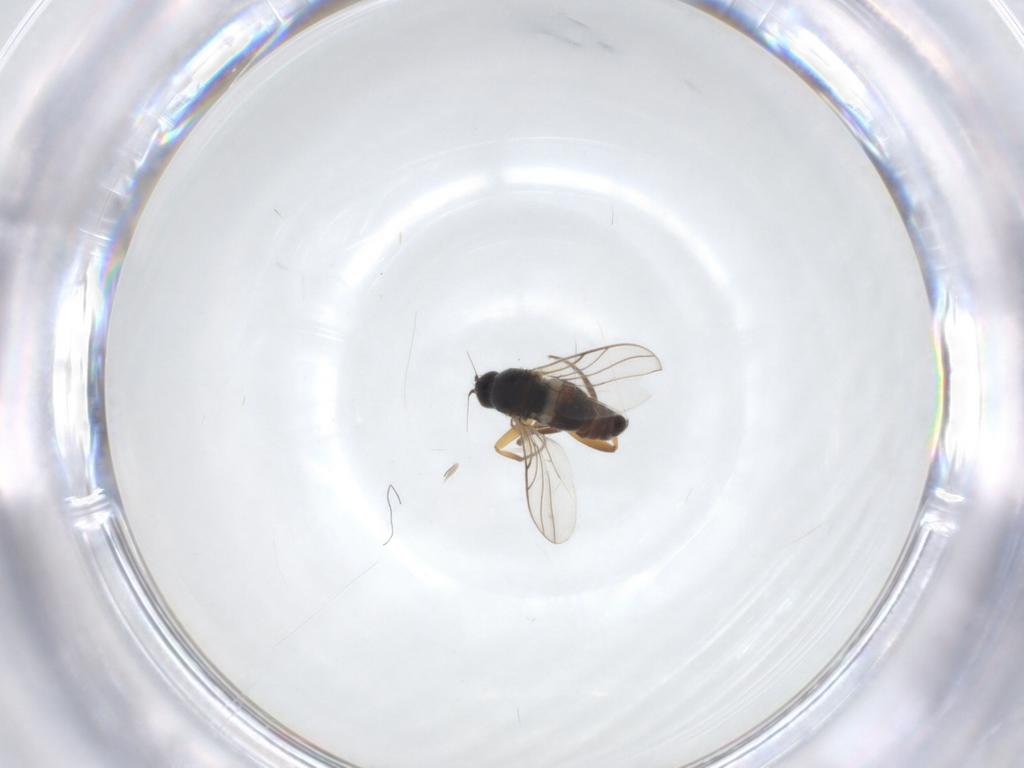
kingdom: Animalia
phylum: Arthropoda
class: Insecta
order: Diptera
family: Hybotidae
